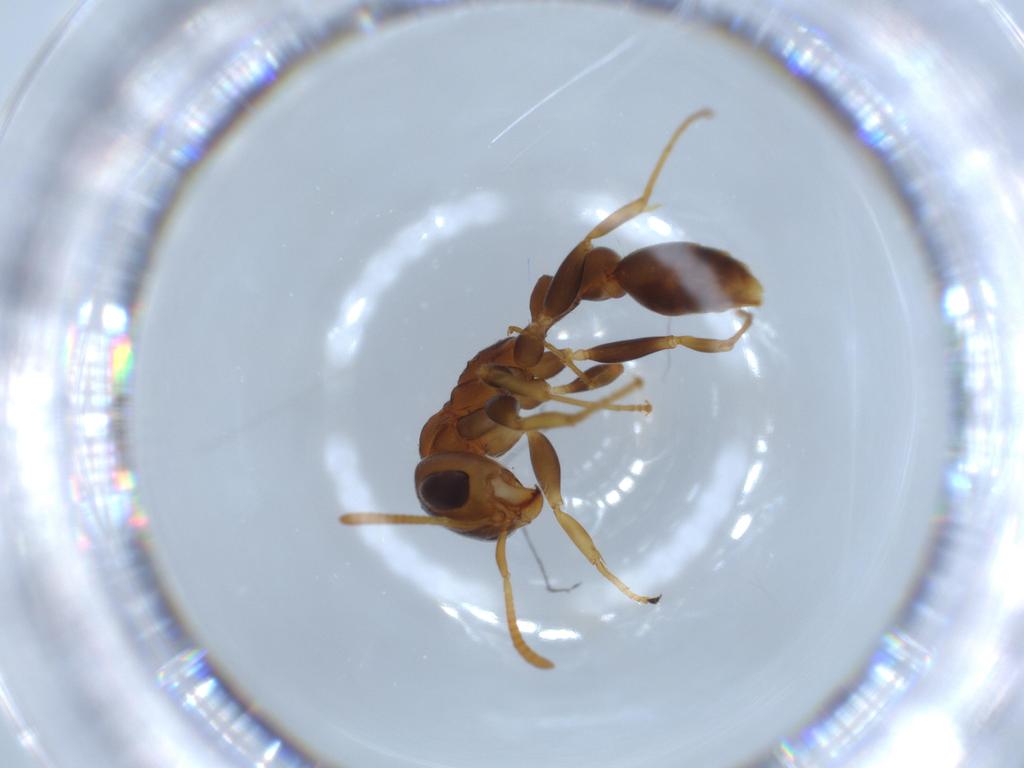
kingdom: Animalia
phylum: Arthropoda
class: Insecta
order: Hymenoptera
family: Formicidae
